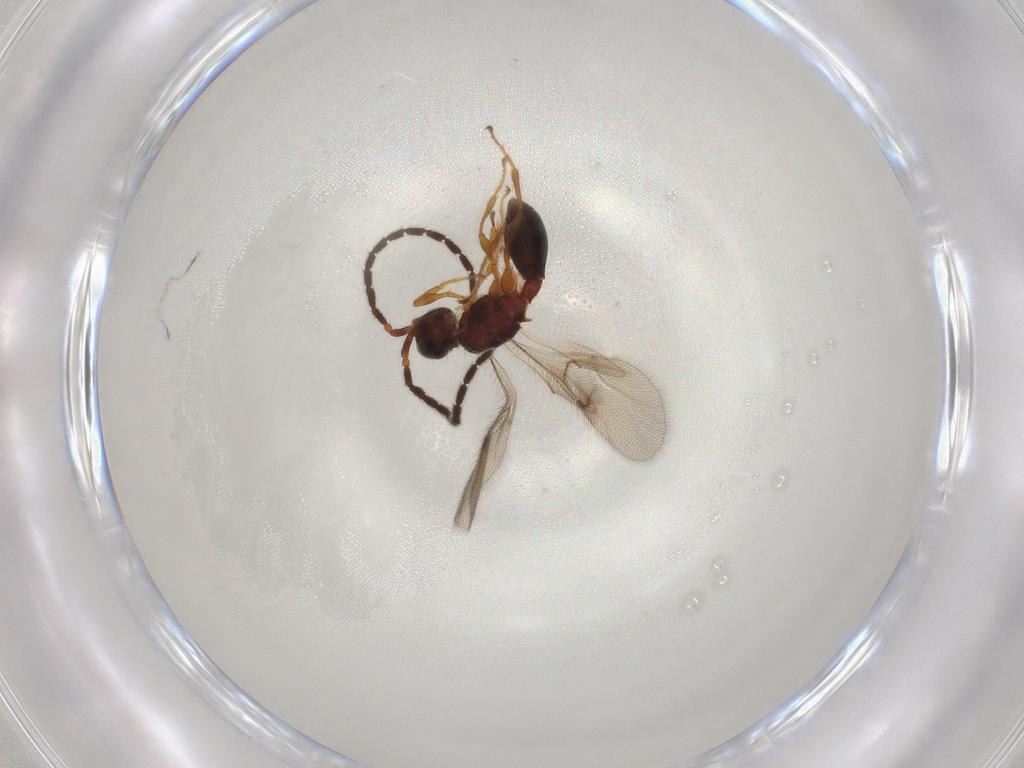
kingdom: Animalia
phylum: Arthropoda
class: Insecta
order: Hymenoptera
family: Diapriidae
